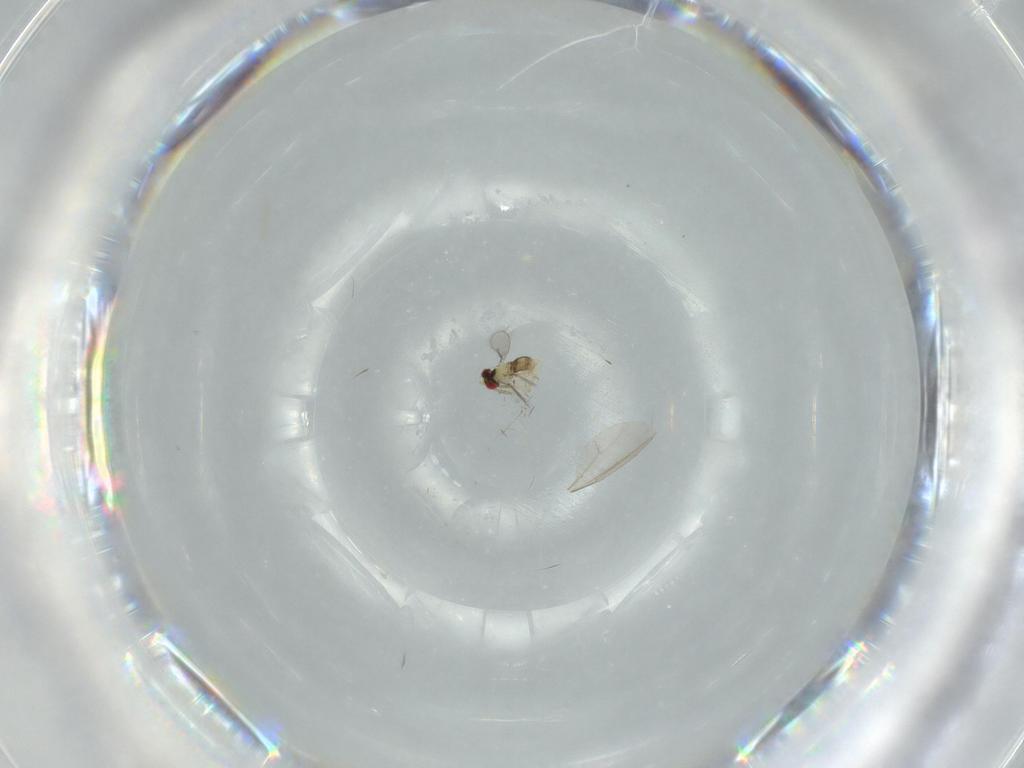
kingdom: Animalia
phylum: Arthropoda
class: Insecta
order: Hymenoptera
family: Aphelinidae
